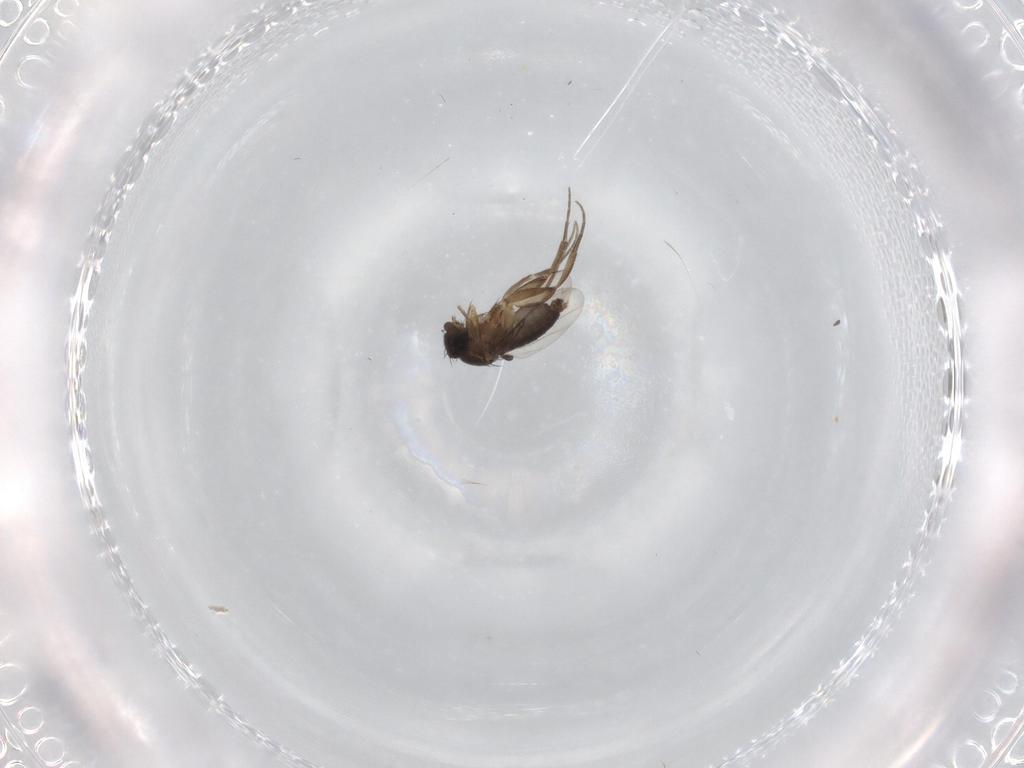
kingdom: Animalia
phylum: Arthropoda
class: Insecta
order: Diptera
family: Phoridae
